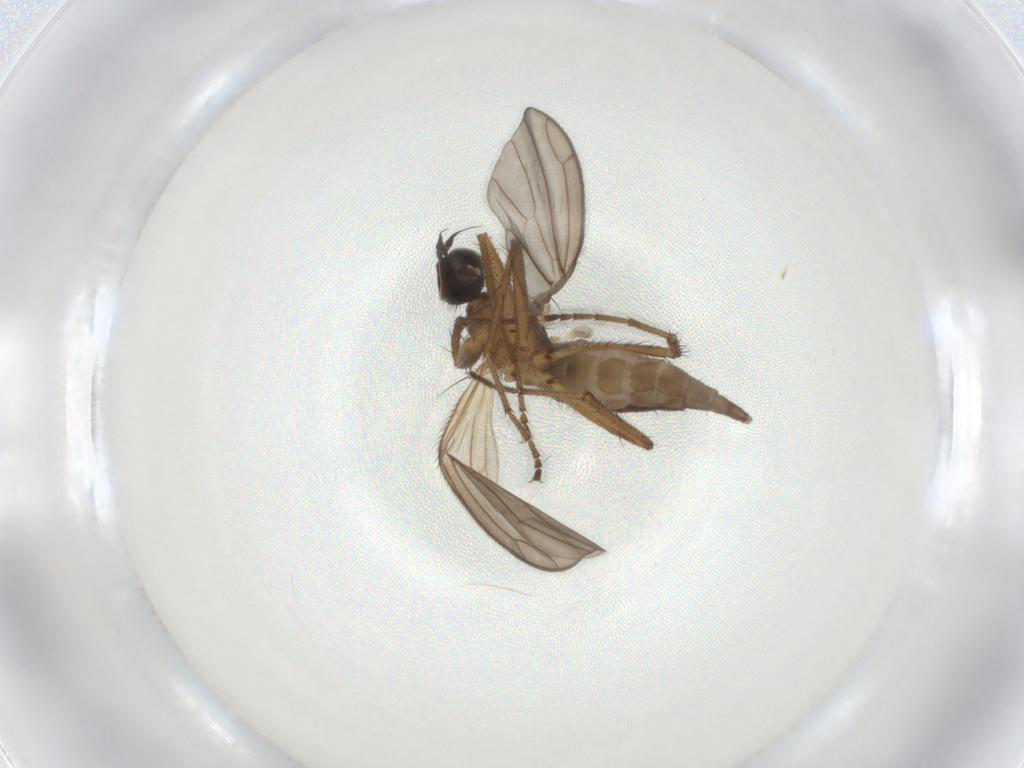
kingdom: Animalia
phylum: Arthropoda
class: Insecta
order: Diptera
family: Empididae
